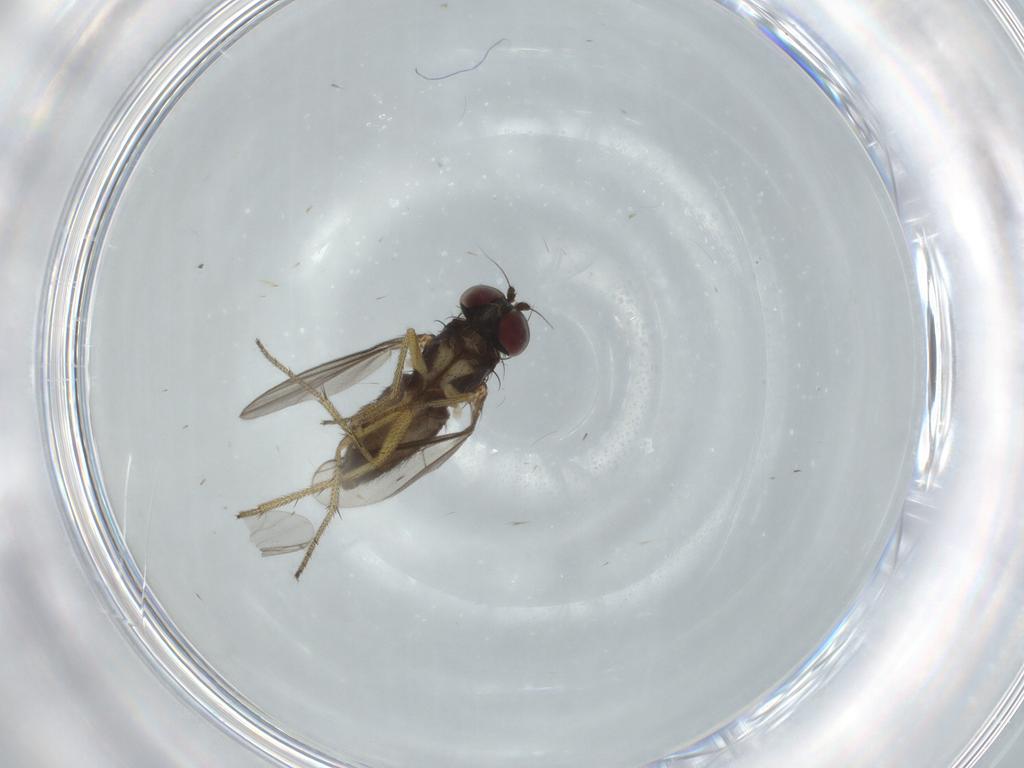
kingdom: Animalia
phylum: Arthropoda
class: Insecta
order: Diptera
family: Dolichopodidae
